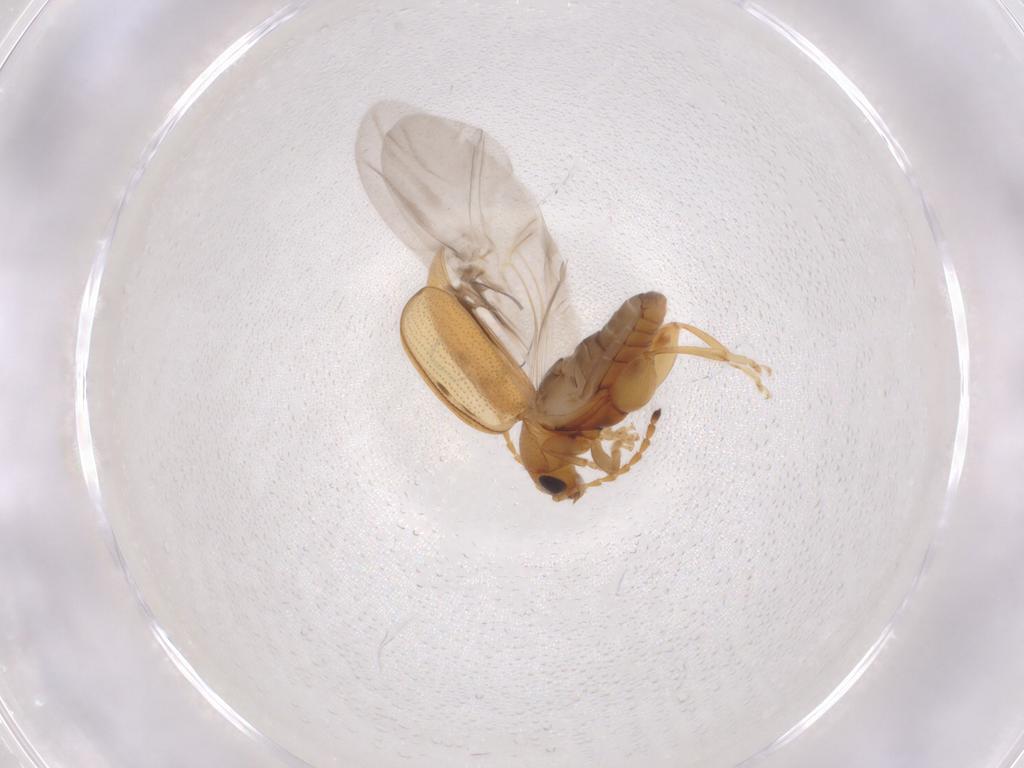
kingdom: Animalia
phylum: Arthropoda
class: Insecta
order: Coleoptera
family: Chrysomelidae
